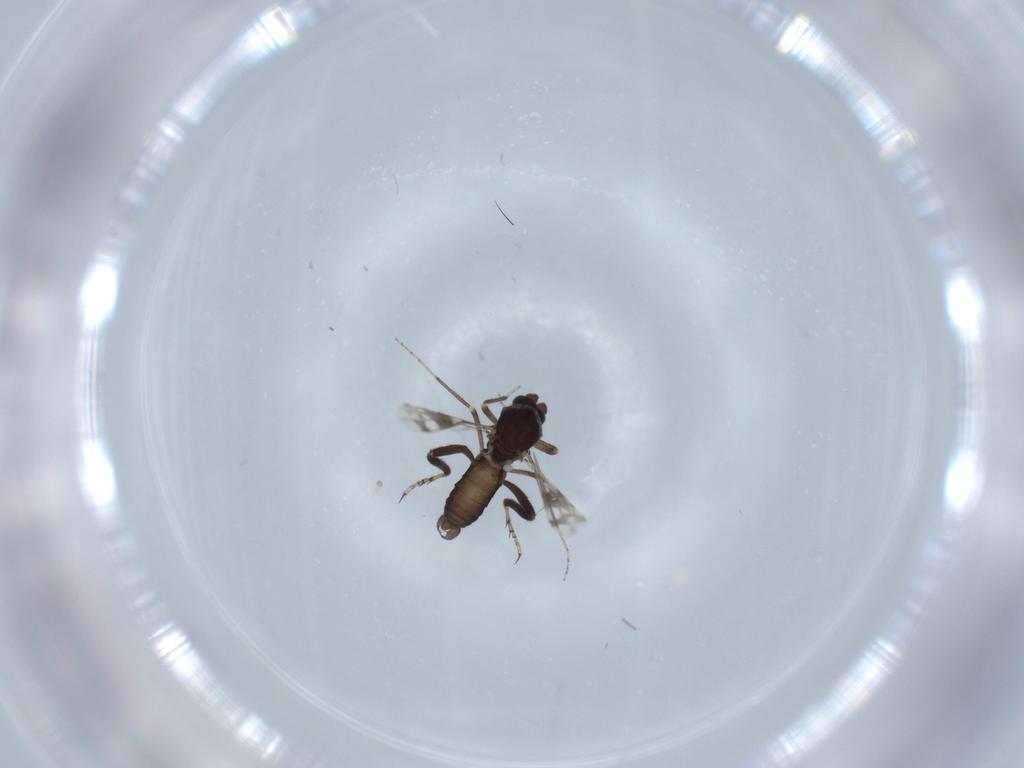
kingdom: Animalia
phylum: Arthropoda
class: Insecta
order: Diptera
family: Ceratopogonidae
